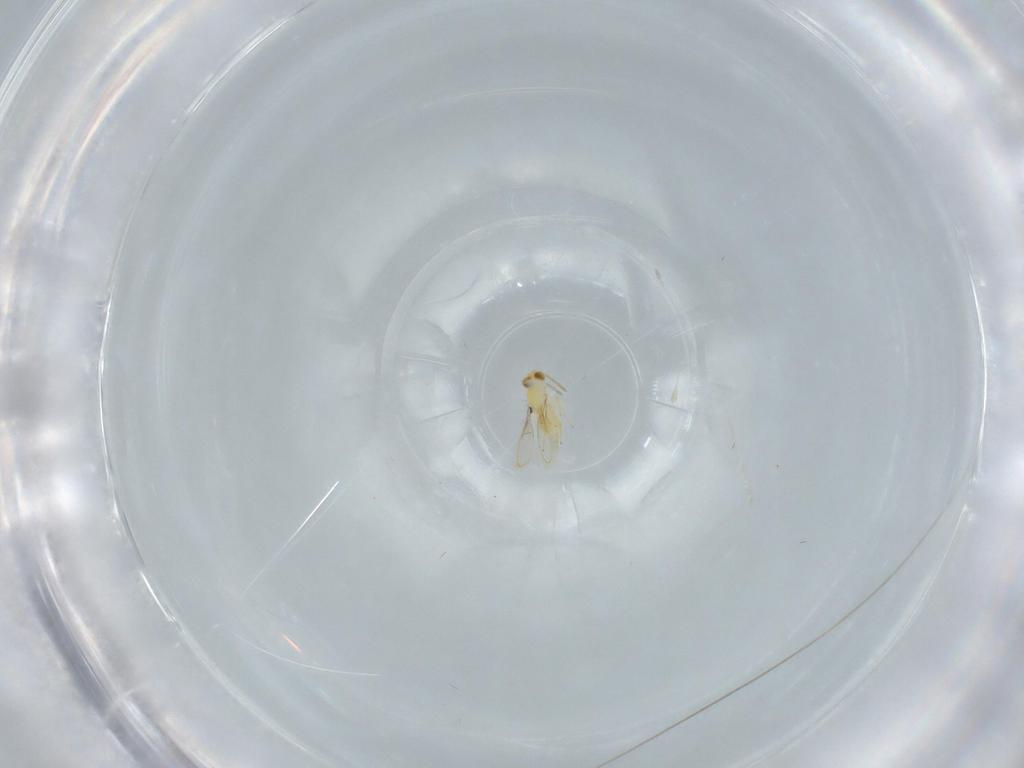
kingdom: Animalia
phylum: Arthropoda
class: Insecta
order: Hymenoptera
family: Aphelinidae
